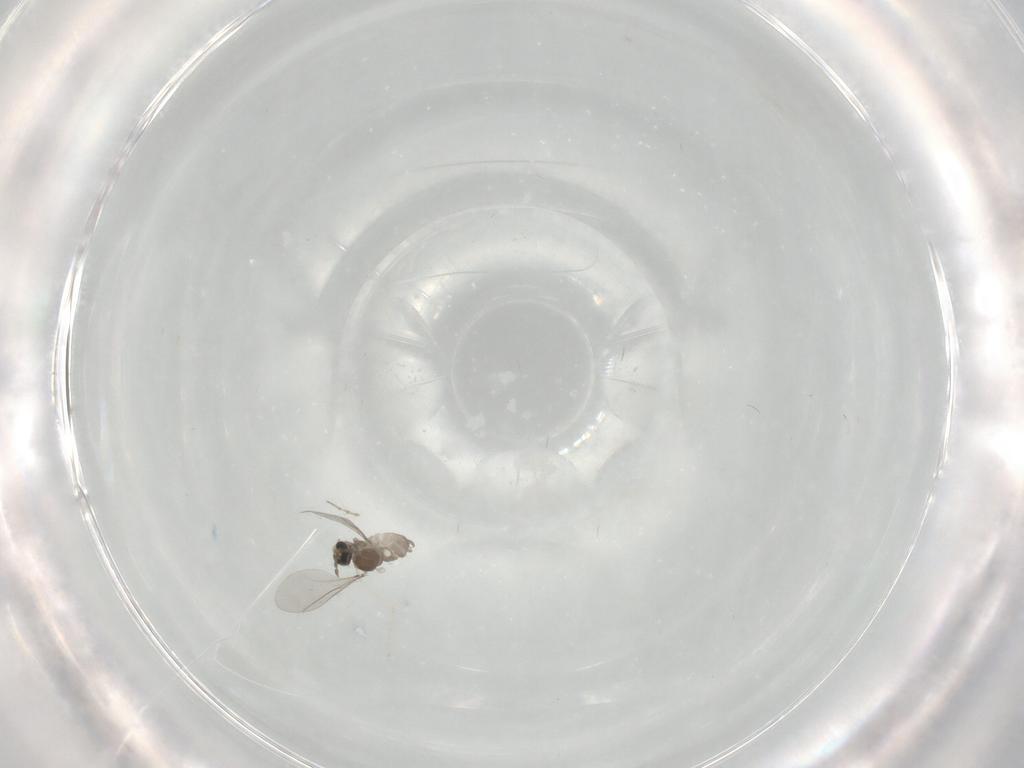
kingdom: Animalia
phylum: Arthropoda
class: Insecta
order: Diptera
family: Cecidomyiidae
